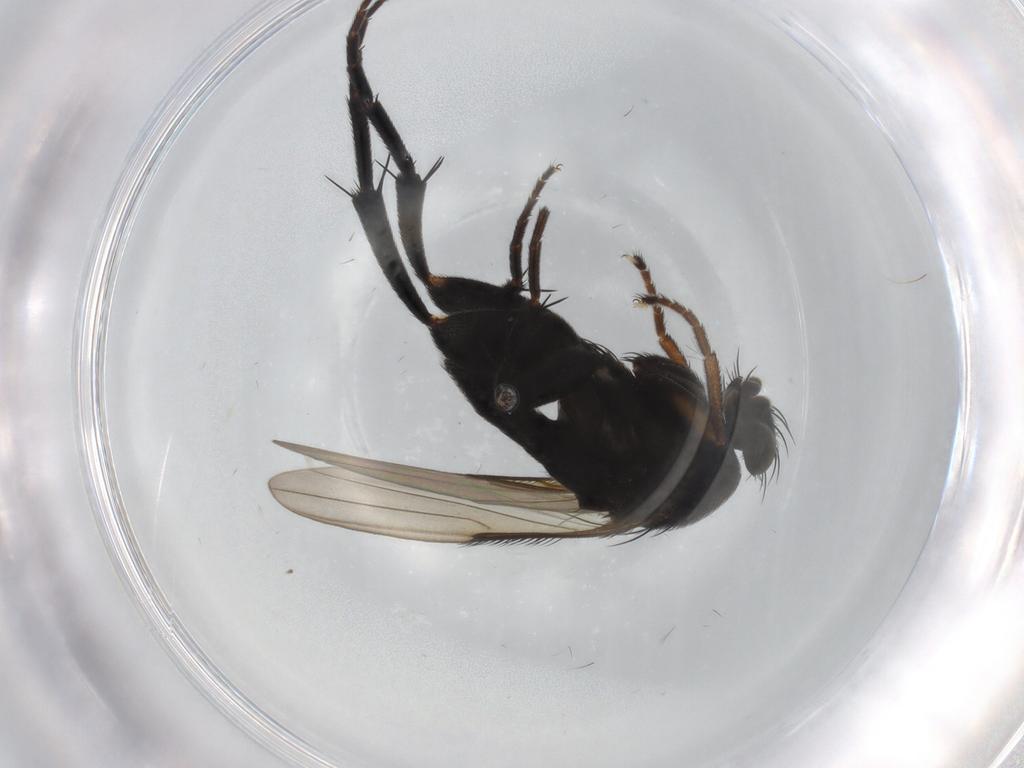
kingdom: Animalia
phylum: Arthropoda
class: Insecta
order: Diptera
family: Phoridae
